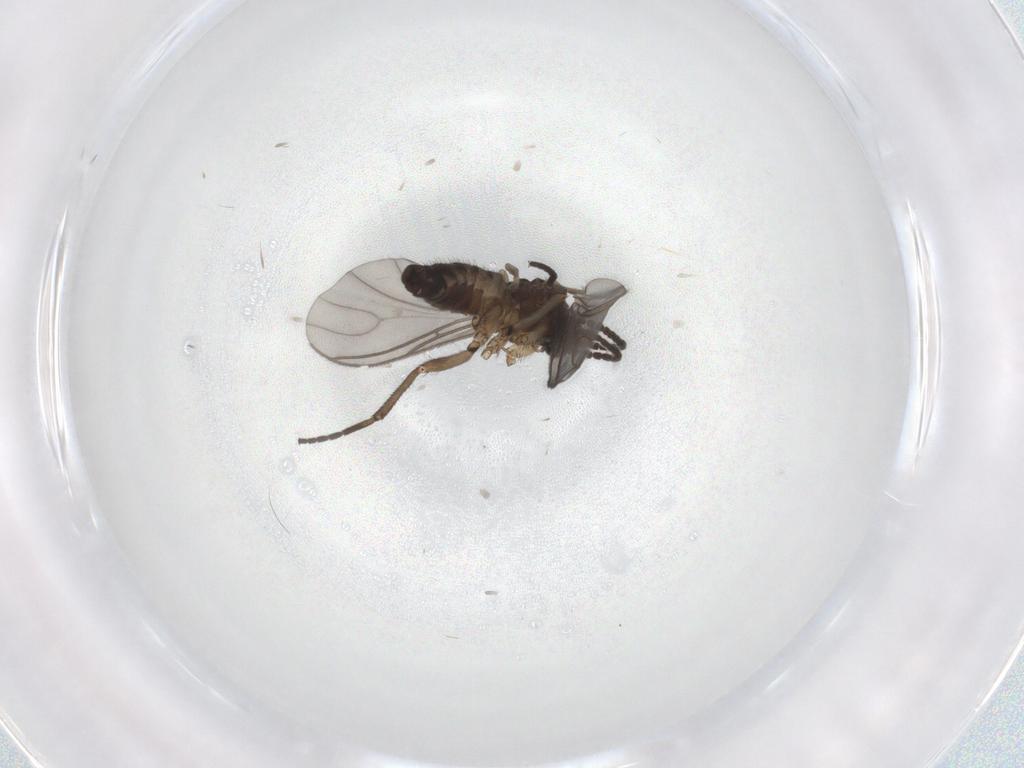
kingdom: Animalia
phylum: Arthropoda
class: Insecta
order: Diptera
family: Sciaridae
